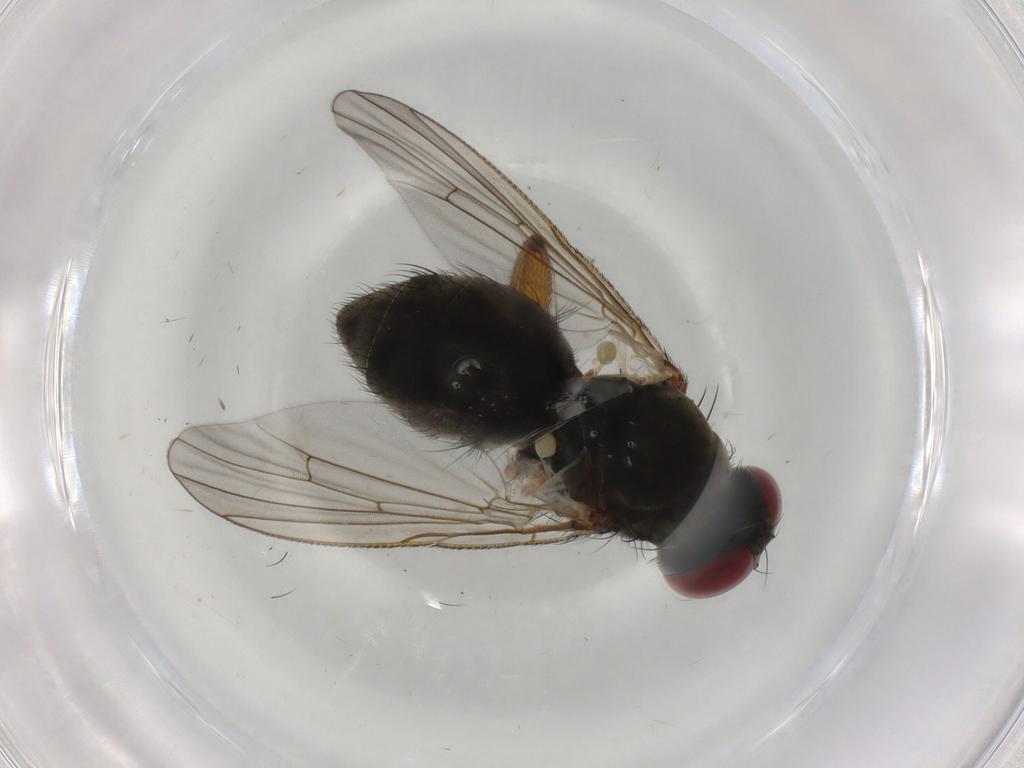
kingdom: Animalia
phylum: Arthropoda
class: Insecta
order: Diptera
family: Muscidae
